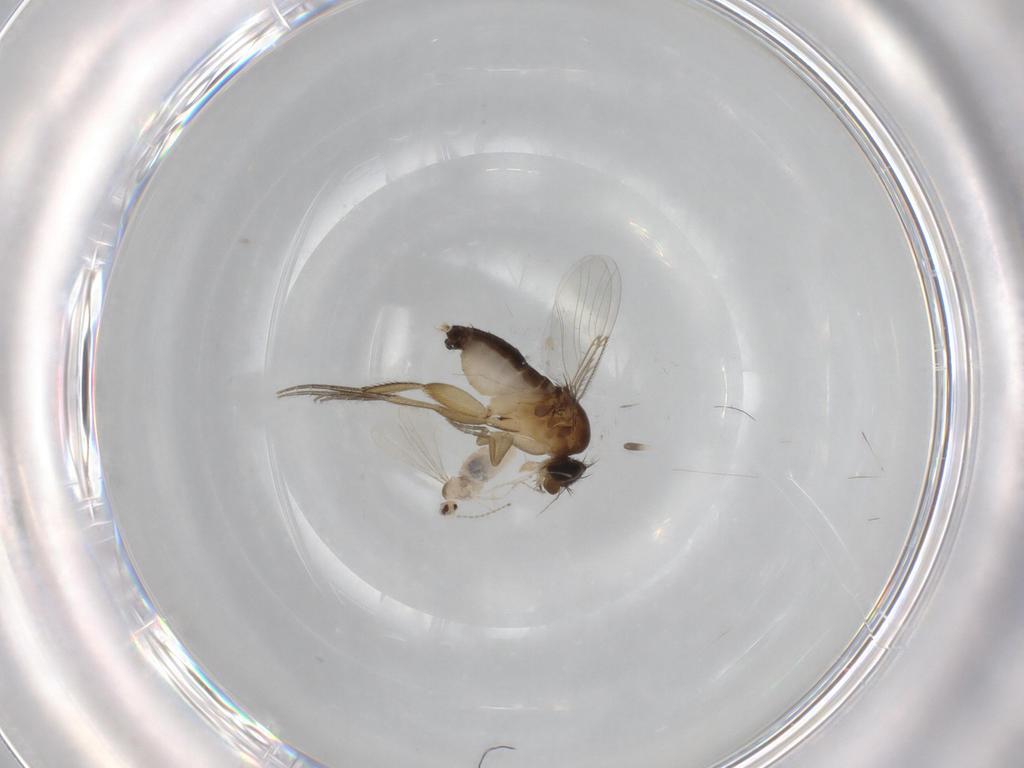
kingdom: Animalia
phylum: Arthropoda
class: Insecta
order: Diptera
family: Phoridae
